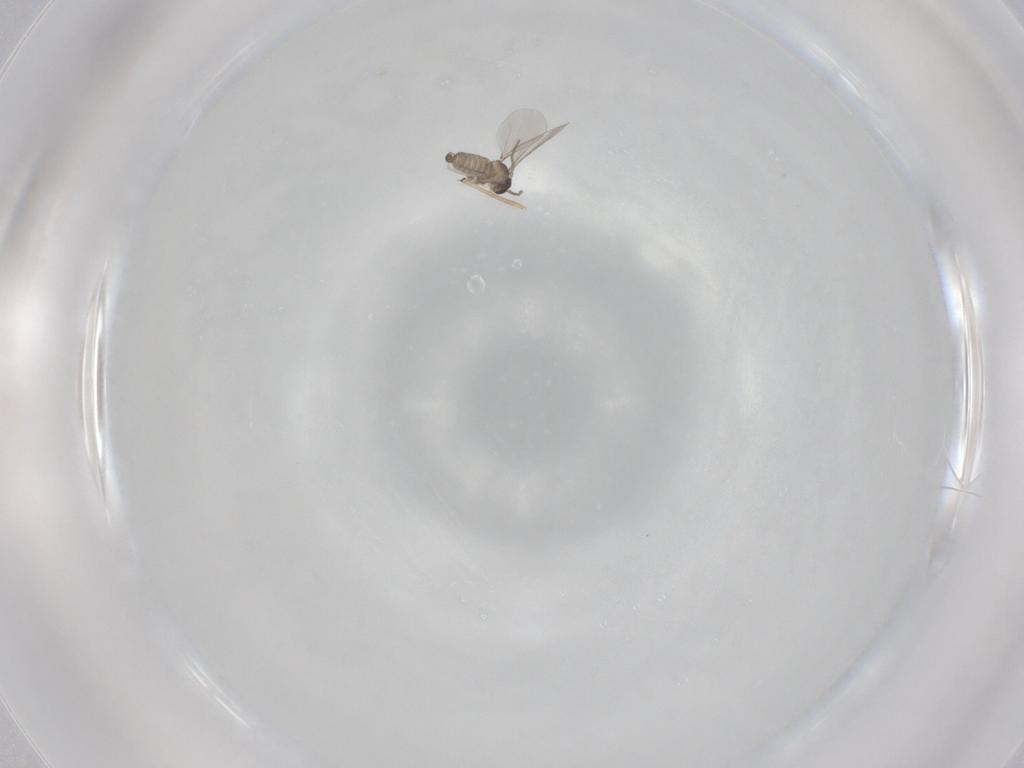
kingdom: Animalia
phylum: Arthropoda
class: Insecta
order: Diptera
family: Cecidomyiidae
